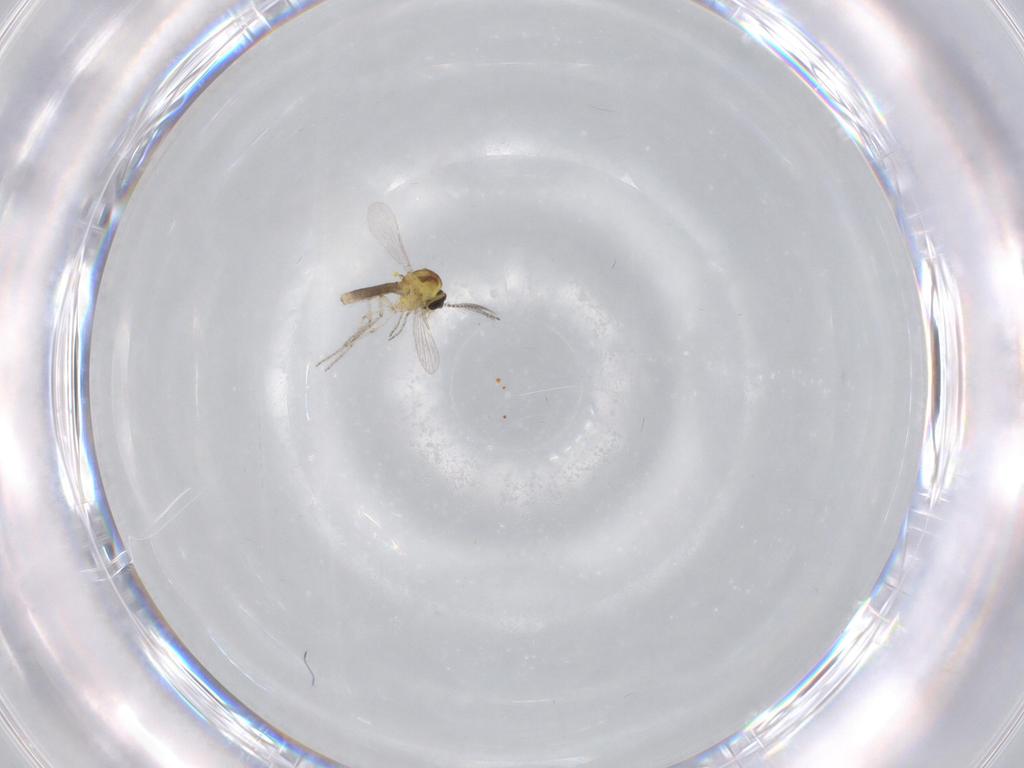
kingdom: Animalia
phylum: Arthropoda
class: Insecta
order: Diptera
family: Ceratopogonidae
